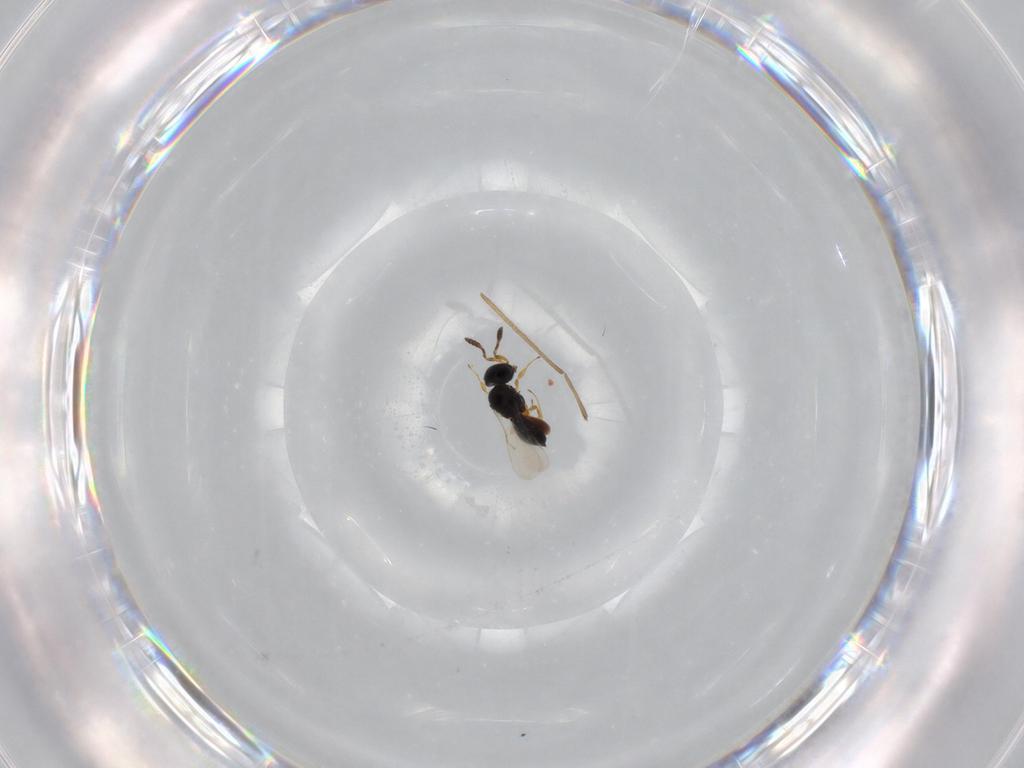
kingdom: Animalia
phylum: Arthropoda
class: Insecta
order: Hymenoptera
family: Scelionidae
